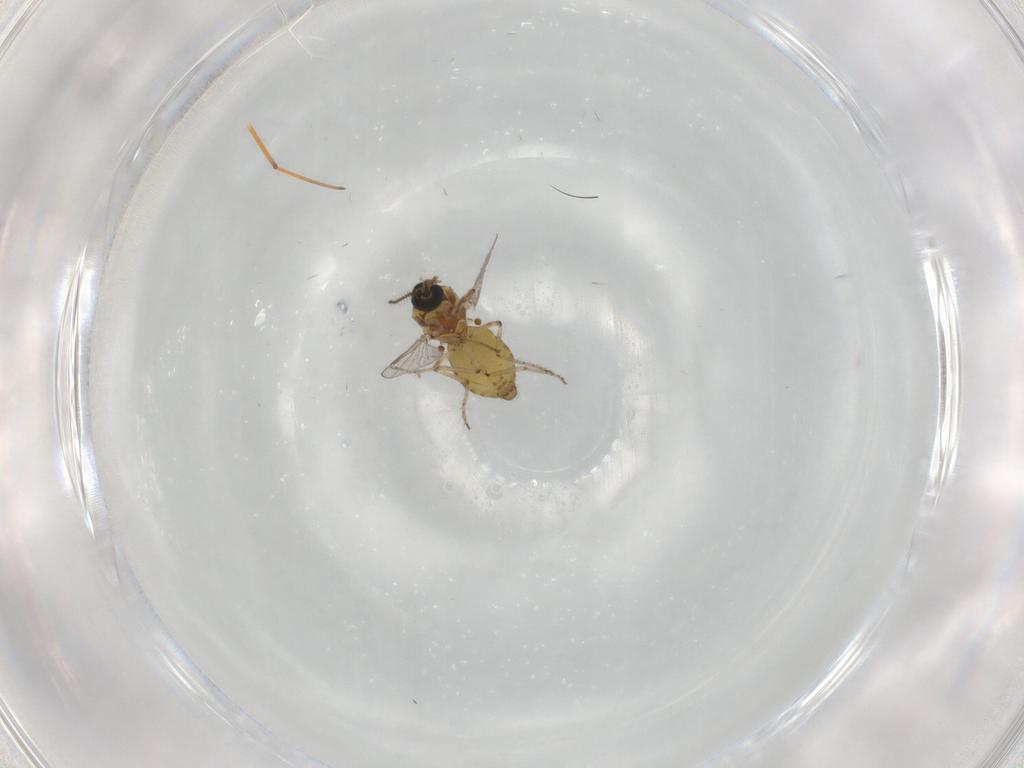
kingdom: Animalia
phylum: Arthropoda
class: Insecta
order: Diptera
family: Ceratopogonidae
